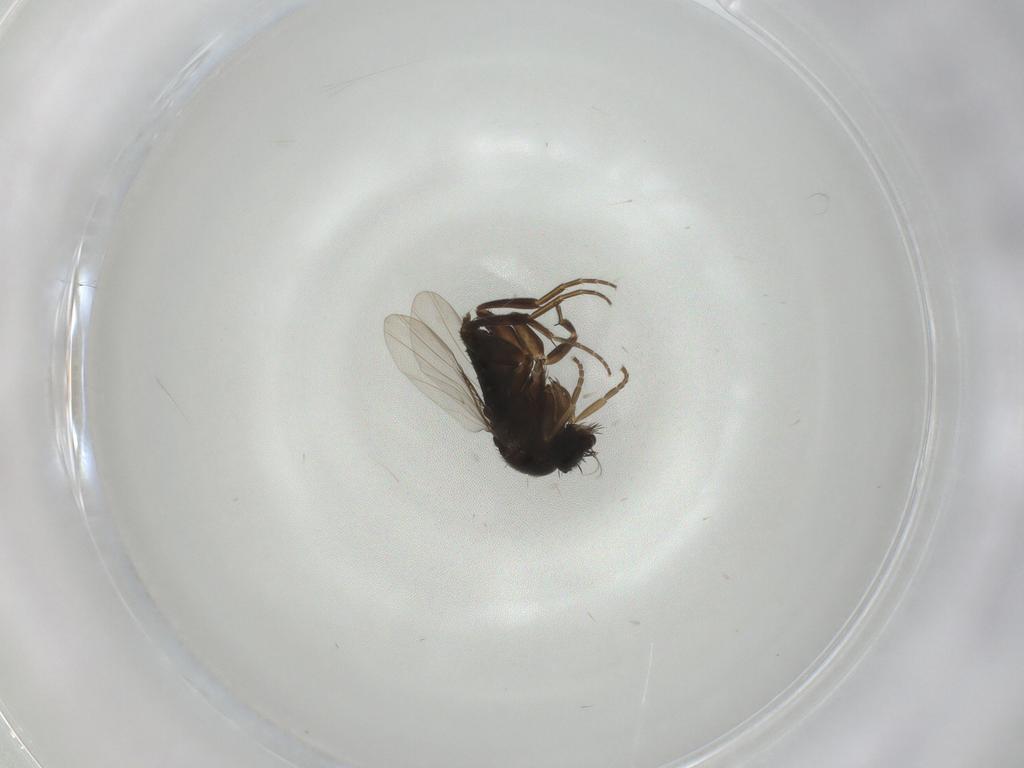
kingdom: Animalia
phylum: Arthropoda
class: Insecta
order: Diptera
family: Phoridae
